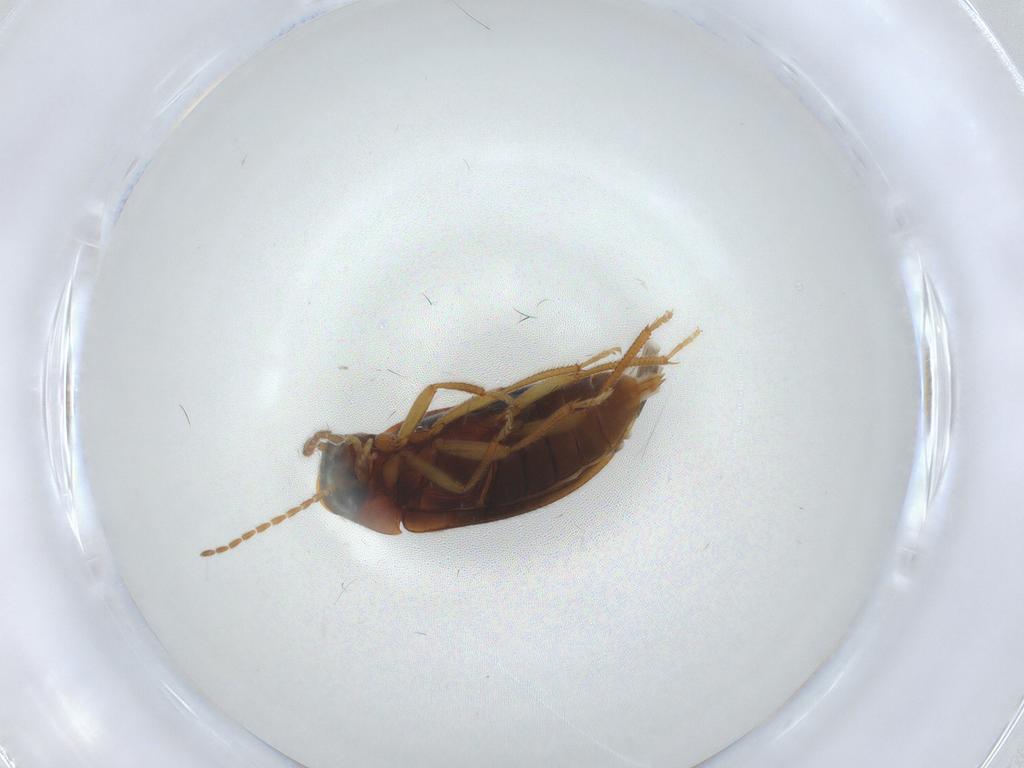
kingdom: Animalia
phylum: Arthropoda
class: Insecta
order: Coleoptera
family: Ptilodactylidae
